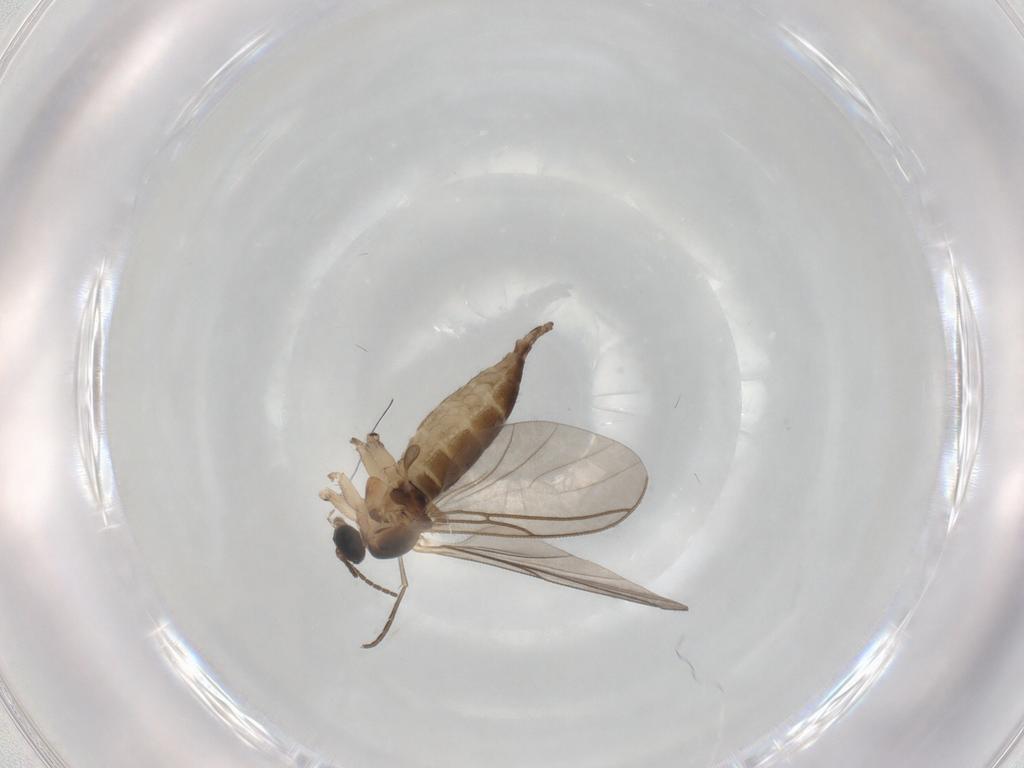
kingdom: Animalia
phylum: Arthropoda
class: Insecta
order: Diptera
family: Sciaridae
